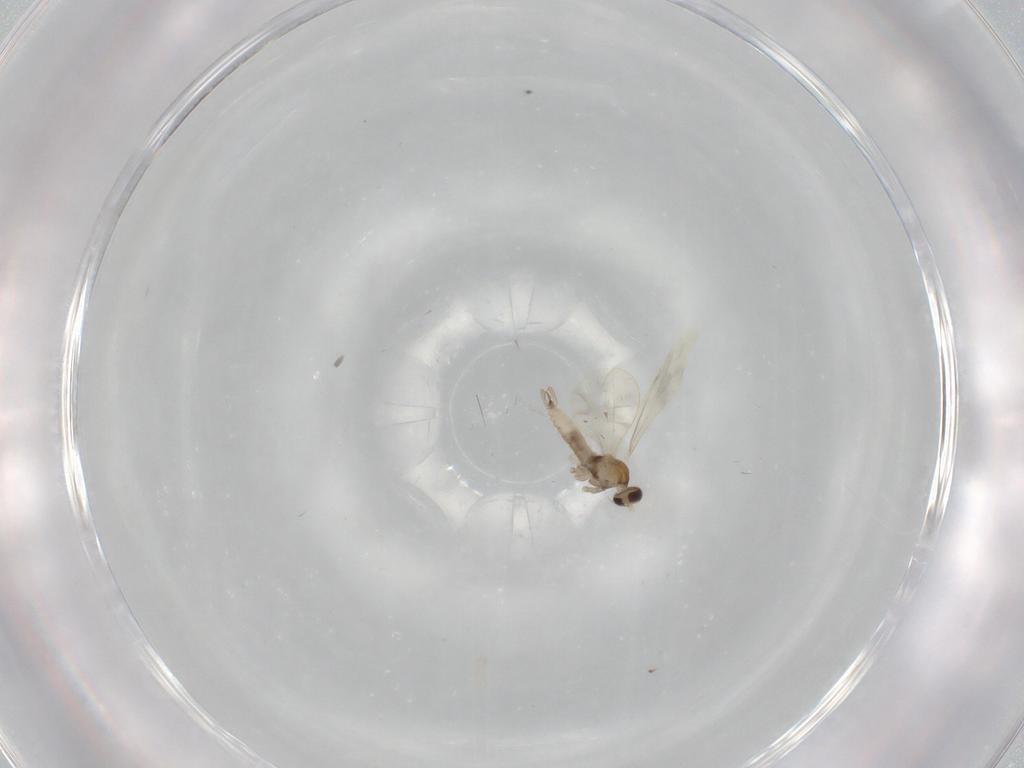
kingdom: Animalia
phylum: Arthropoda
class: Insecta
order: Diptera
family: Cecidomyiidae
